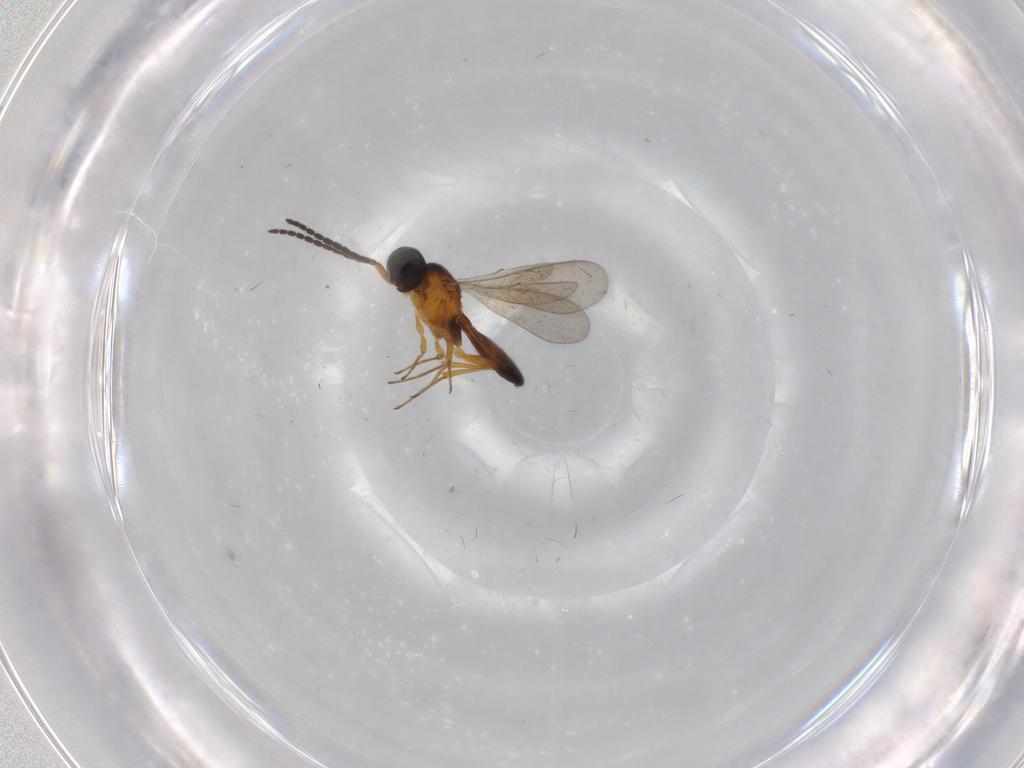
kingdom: Animalia
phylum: Arthropoda
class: Insecta
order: Hymenoptera
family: Scelionidae
